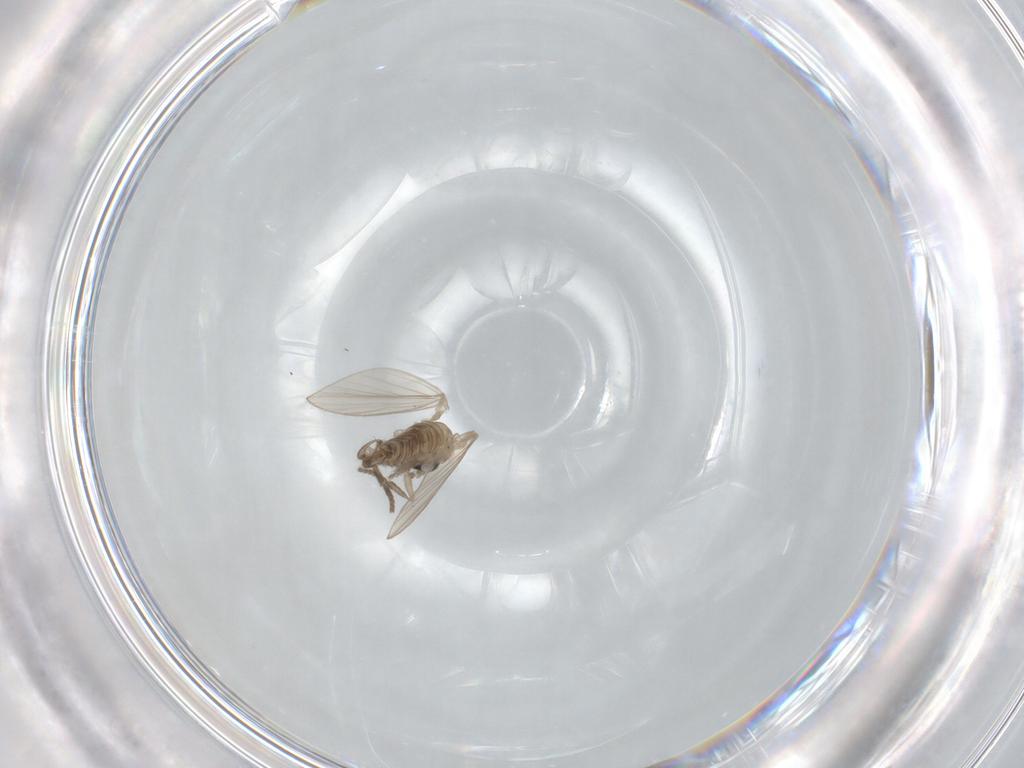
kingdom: Animalia
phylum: Arthropoda
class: Insecta
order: Diptera
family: Psychodidae
